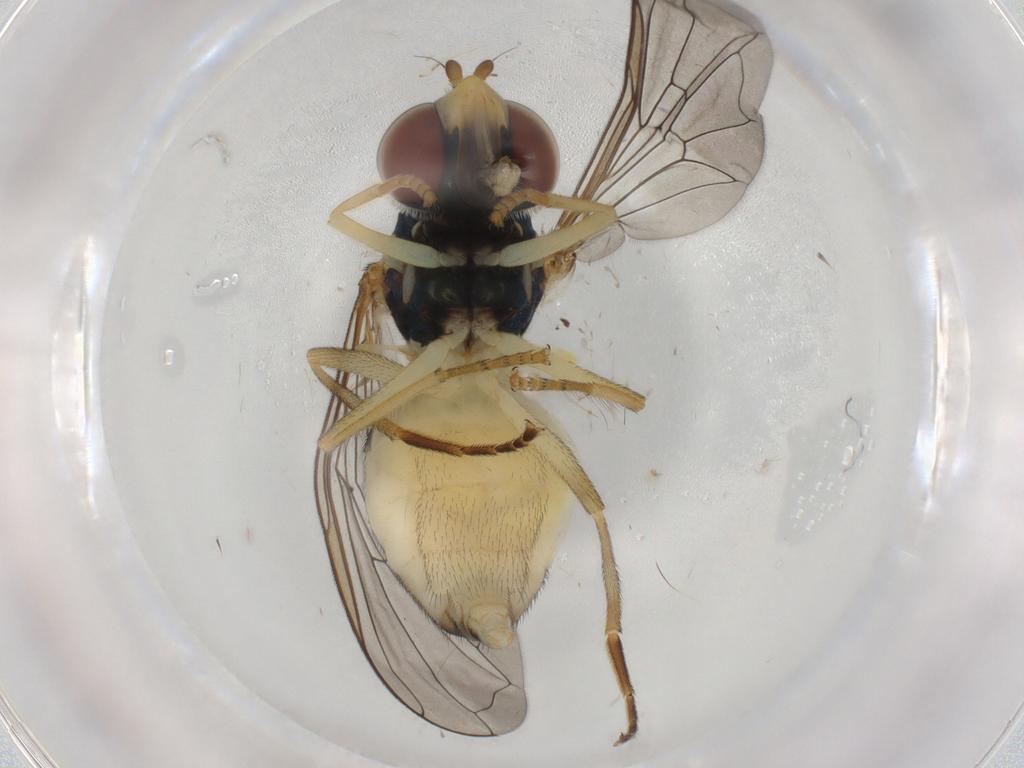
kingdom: Animalia
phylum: Arthropoda
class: Insecta
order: Diptera
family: Syrphidae
